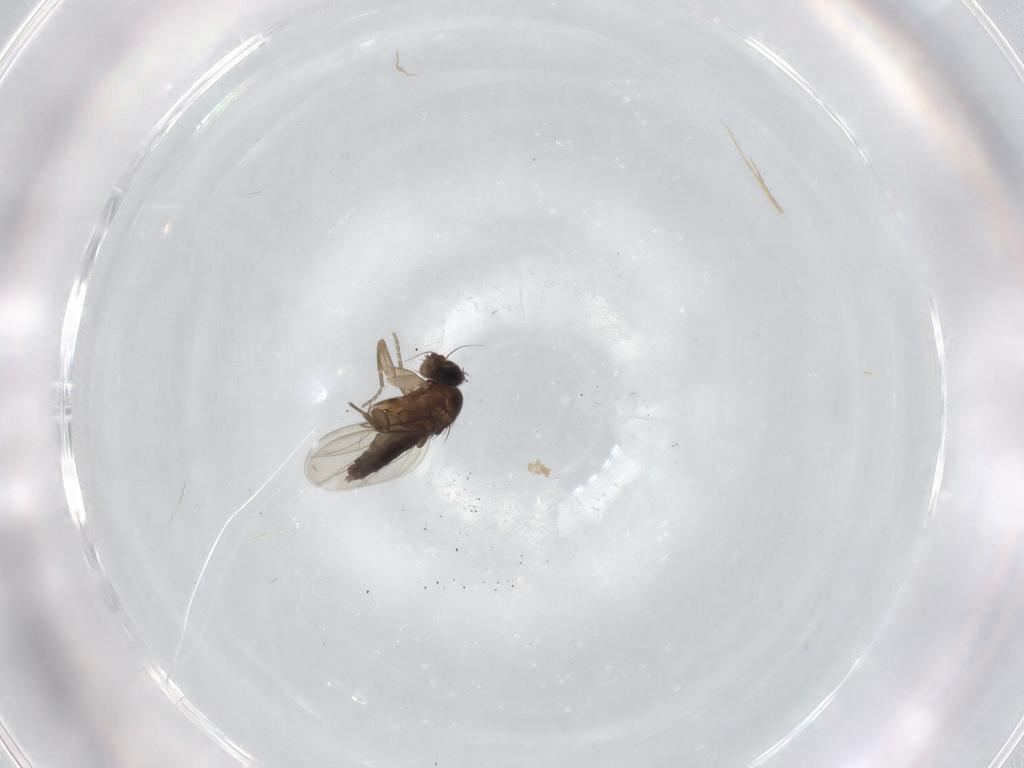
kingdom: Animalia
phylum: Arthropoda
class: Insecta
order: Diptera
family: Phoridae
